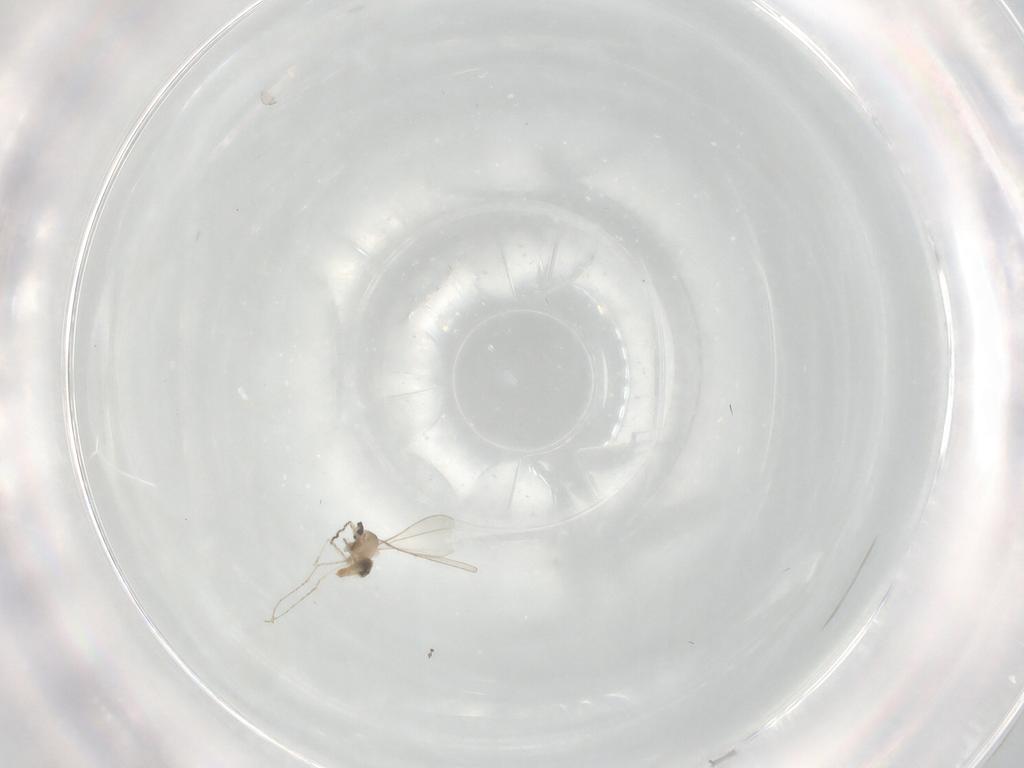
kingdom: Animalia
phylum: Arthropoda
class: Insecta
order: Diptera
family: Cecidomyiidae
